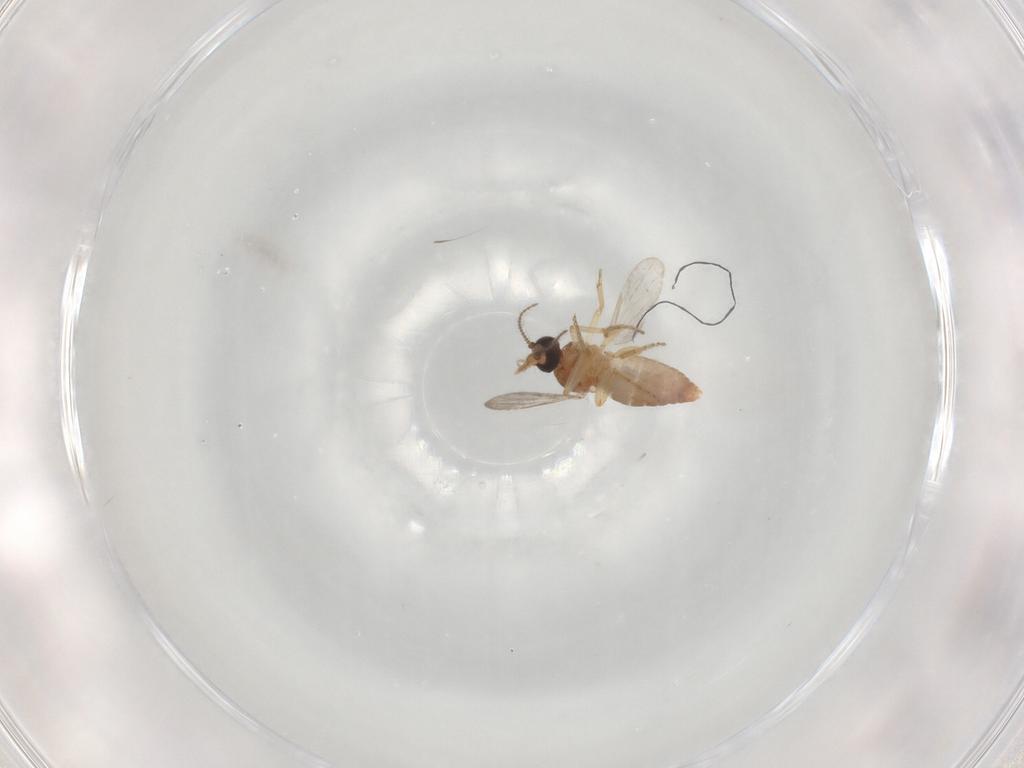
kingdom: Animalia
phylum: Arthropoda
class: Insecta
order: Diptera
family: Ceratopogonidae
